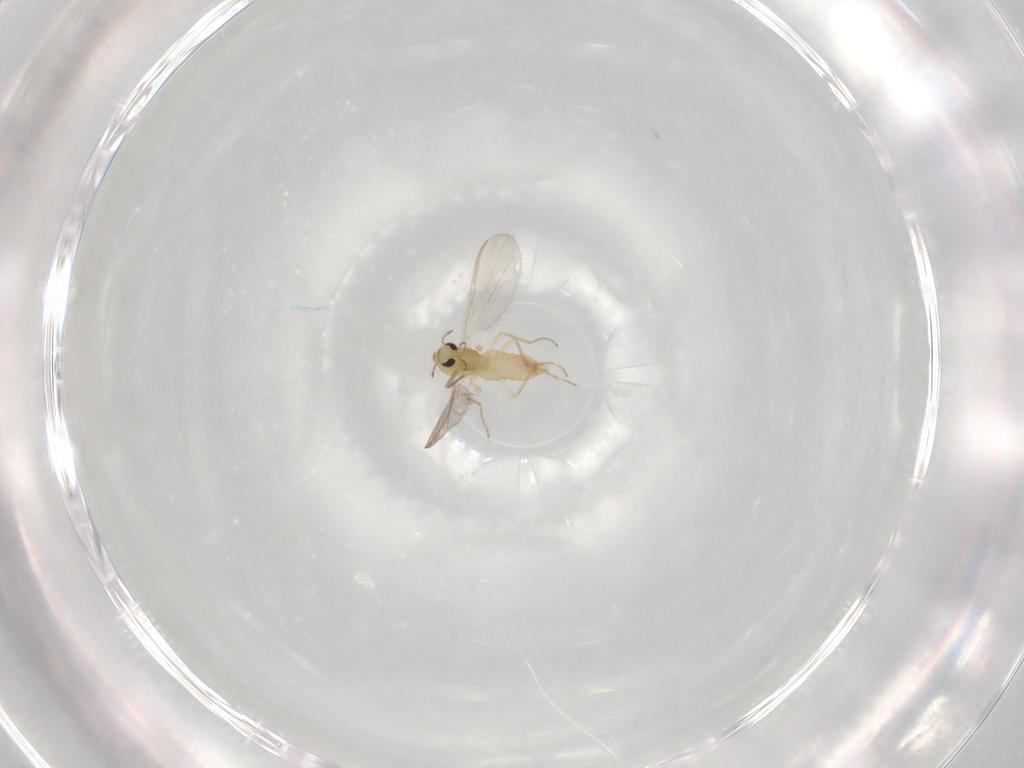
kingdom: Animalia
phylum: Arthropoda
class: Insecta
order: Diptera
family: Chironomidae
